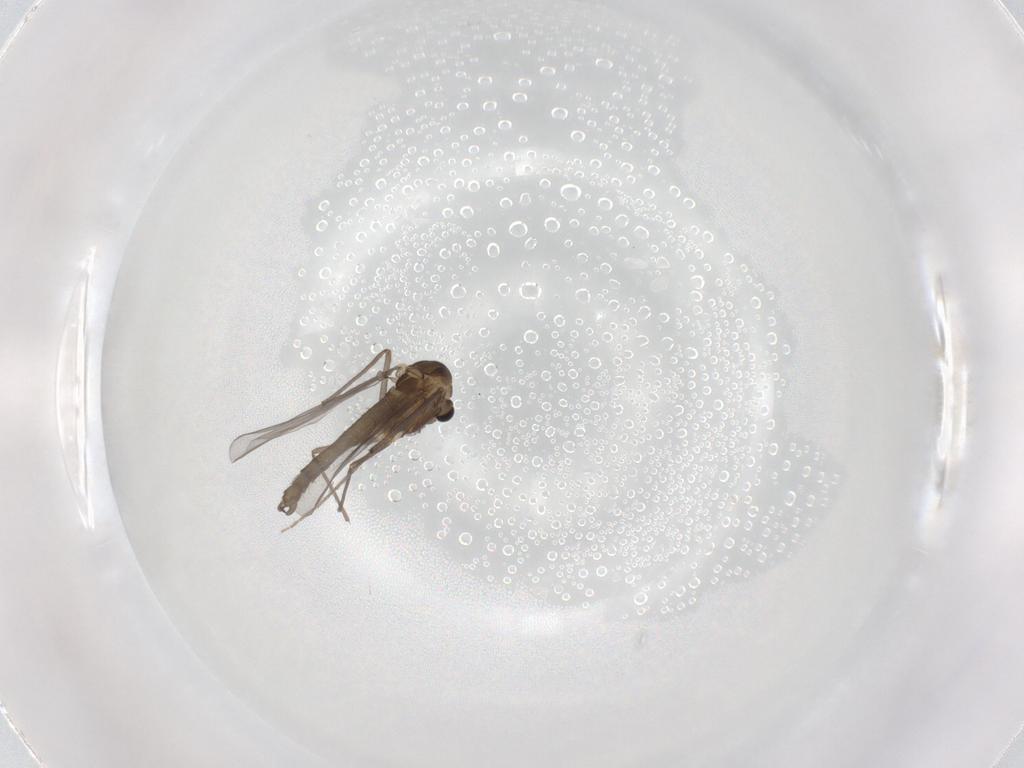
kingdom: Animalia
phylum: Arthropoda
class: Insecta
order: Diptera
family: Chironomidae
